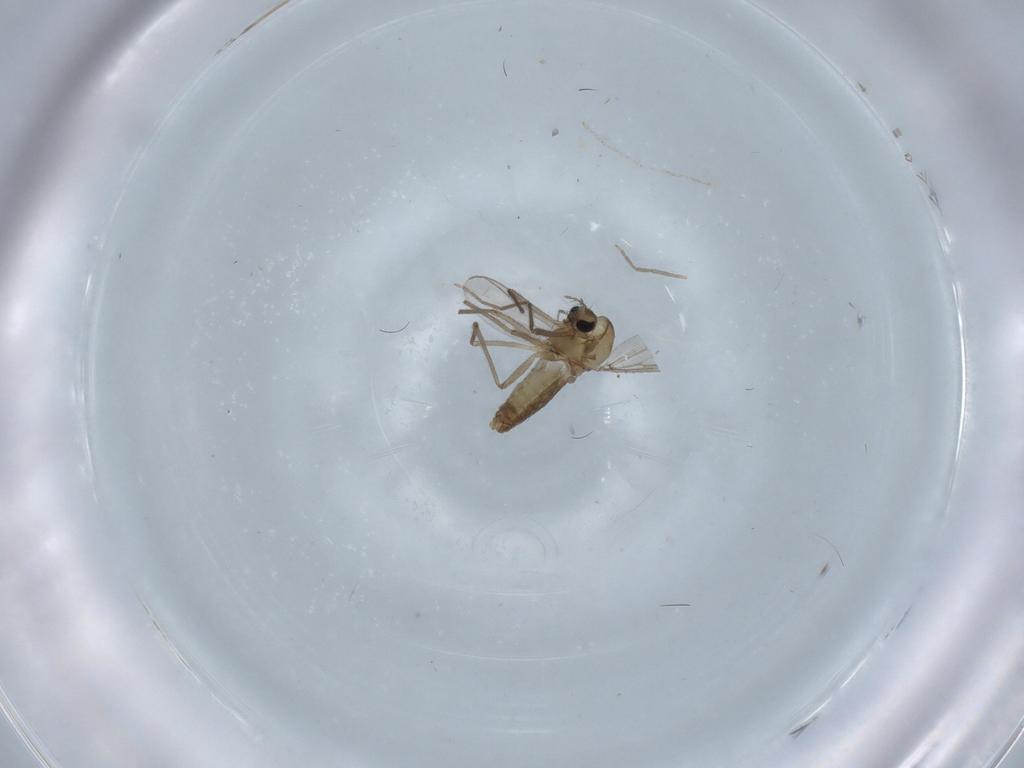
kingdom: Animalia
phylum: Arthropoda
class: Insecta
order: Diptera
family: Chironomidae
